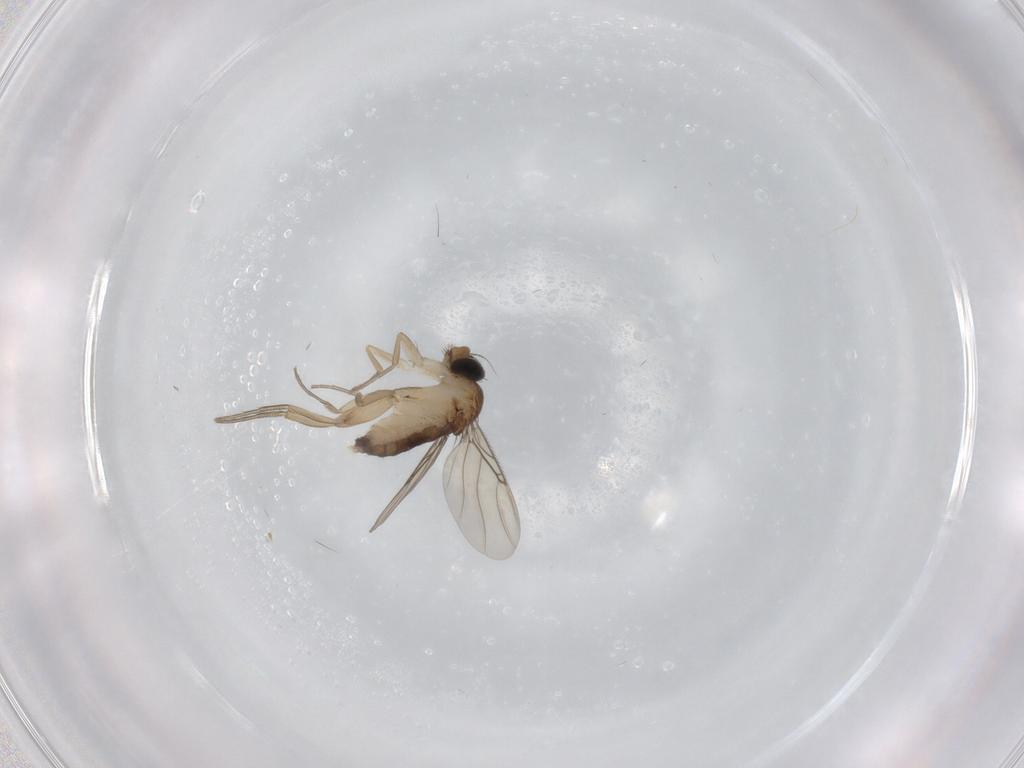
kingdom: Animalia
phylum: Arthropoda
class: Insecta
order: Diptera
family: Phoridae
